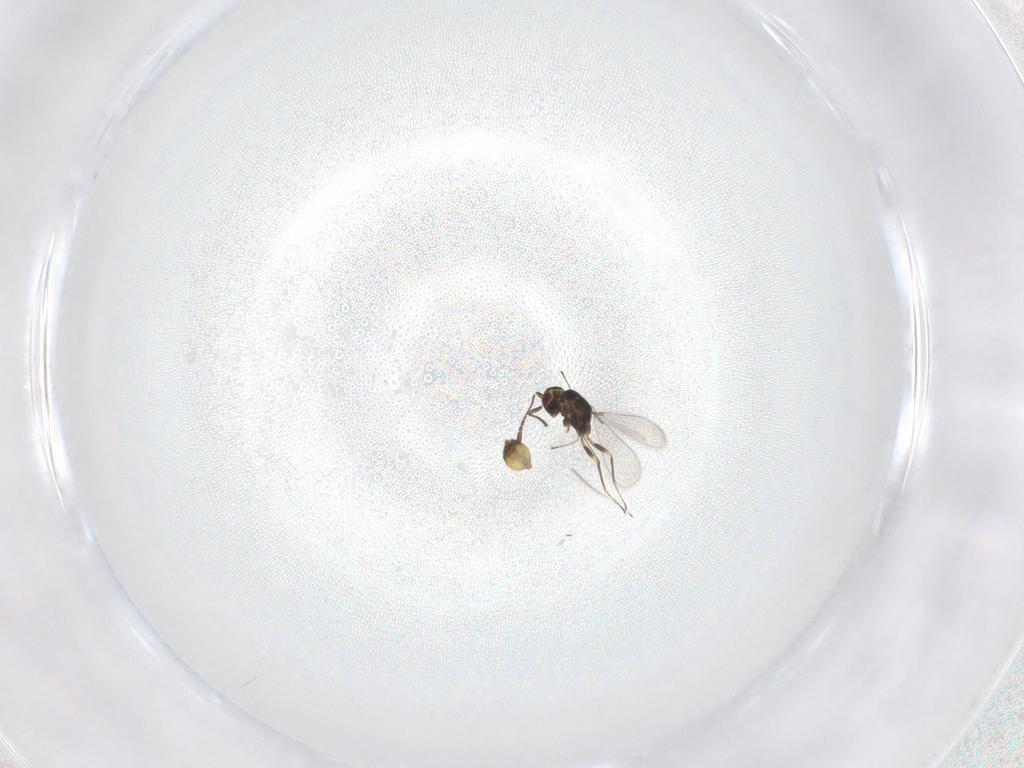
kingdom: Animalia
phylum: Arthropoda
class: Insecta
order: Hymenoptera
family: Mymaridae
